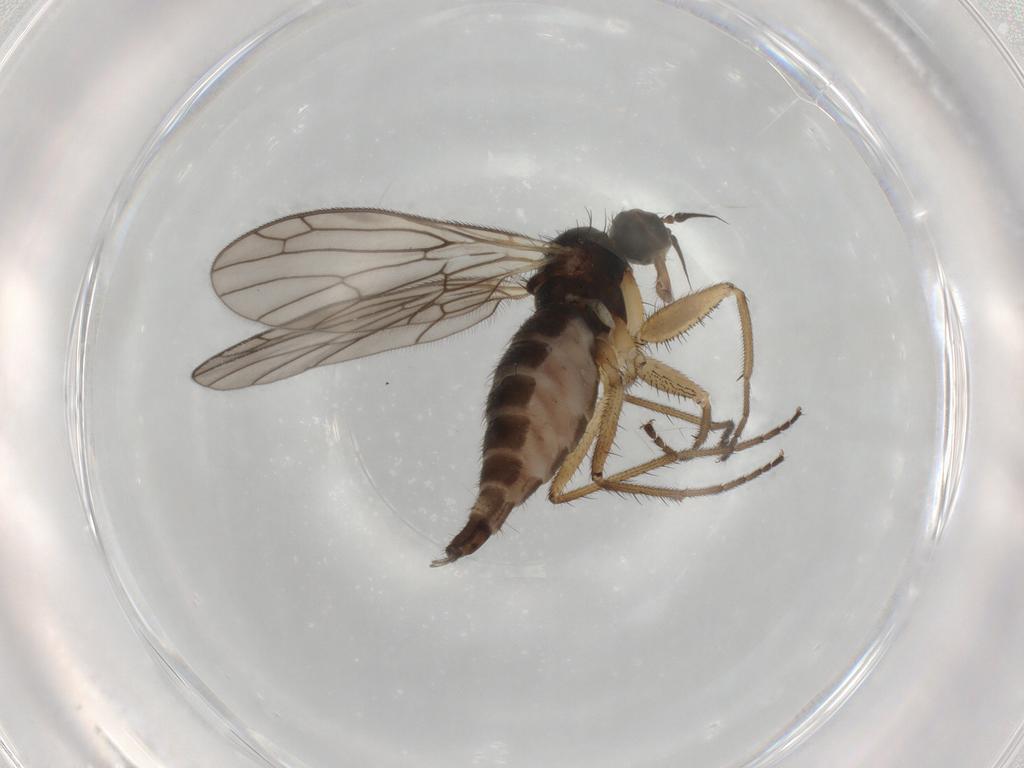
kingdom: Animalia
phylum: Arthropoda
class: Insecta
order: Diptera
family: Empididae
